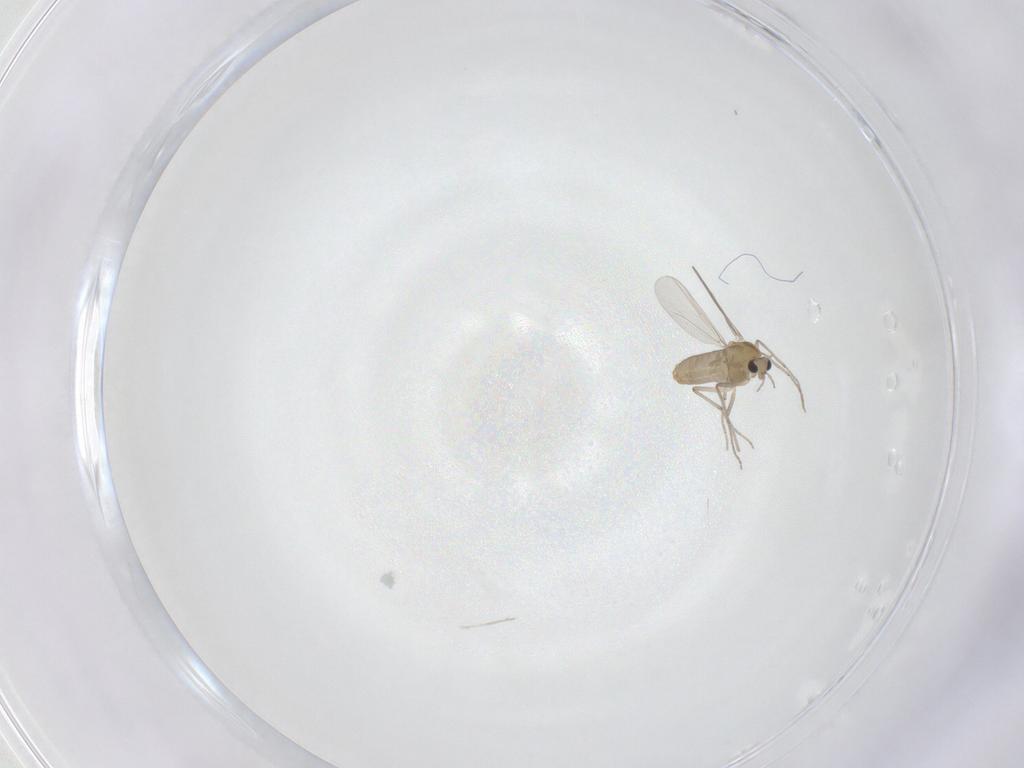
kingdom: Animalia
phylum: Arthropoda
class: Insecta
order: Diptera
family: Chironomidae
